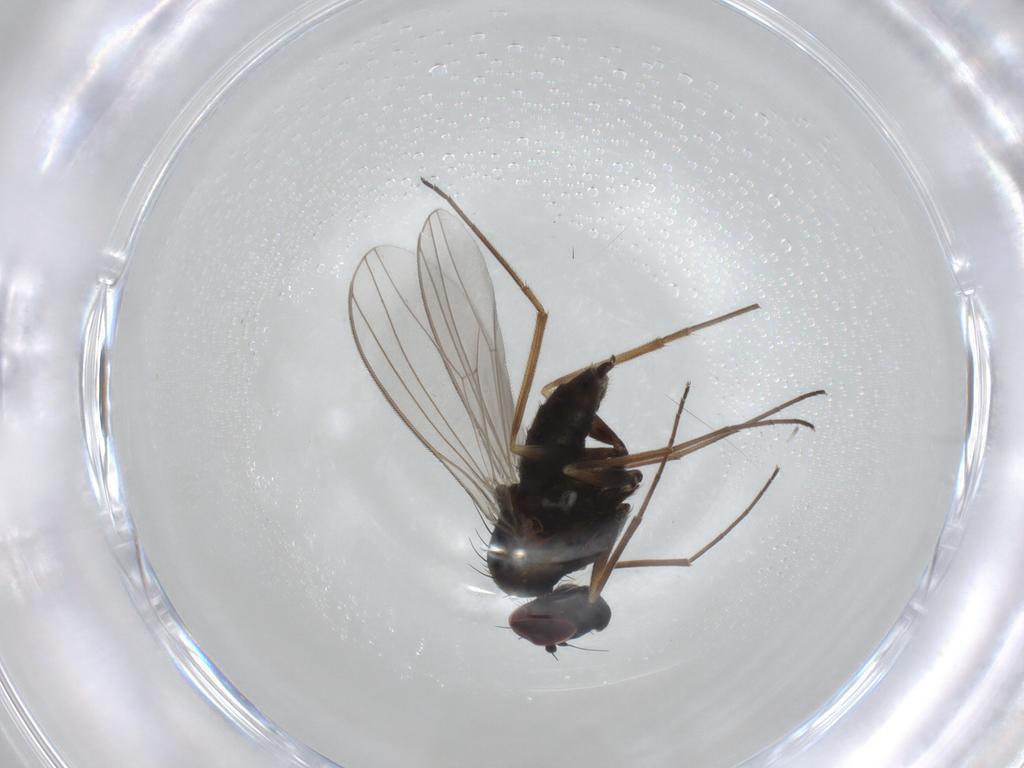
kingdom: Animalia
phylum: Arthropoda
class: Insecta
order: Diptera
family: Dolichopodidae
